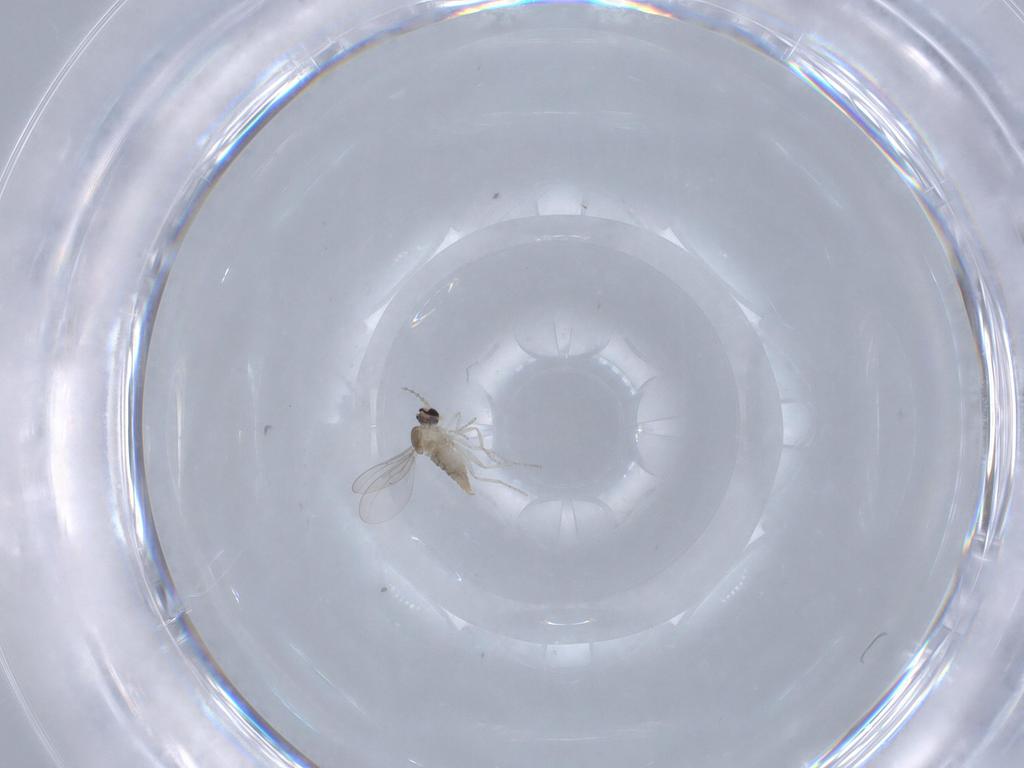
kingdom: Animalia
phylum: Arthropoda
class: Insecta
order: Diptera
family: Cecidomyiidae
